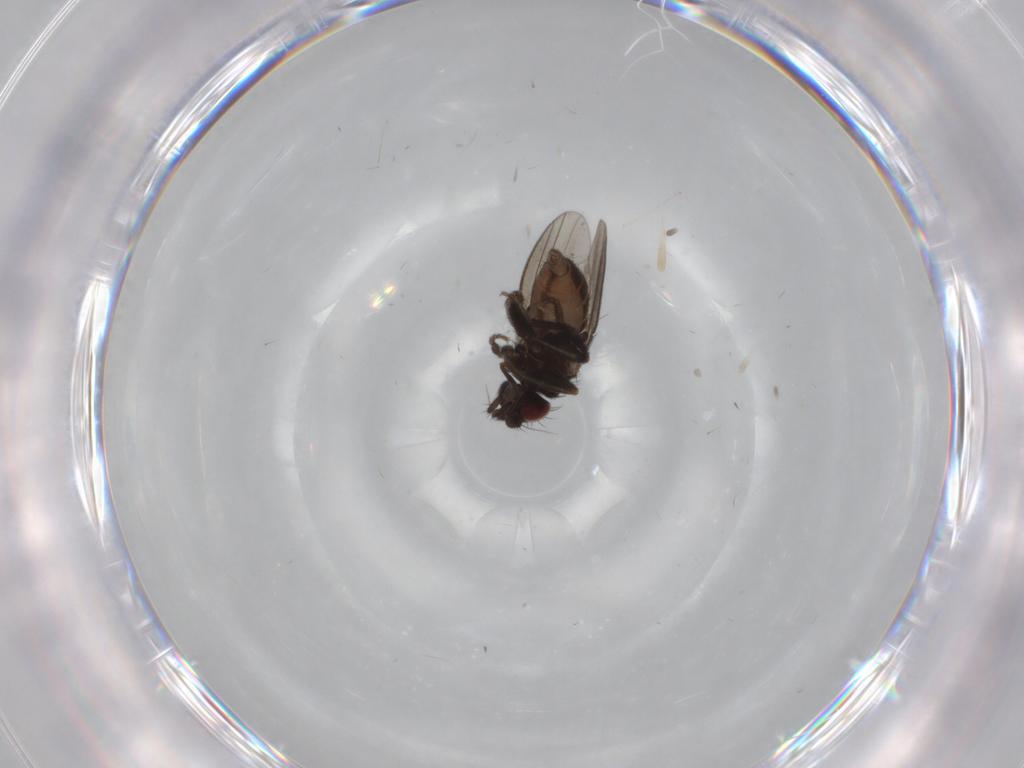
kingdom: Animalia
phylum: Arthropoda
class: Insecta
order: Diptera
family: Milichiidae
